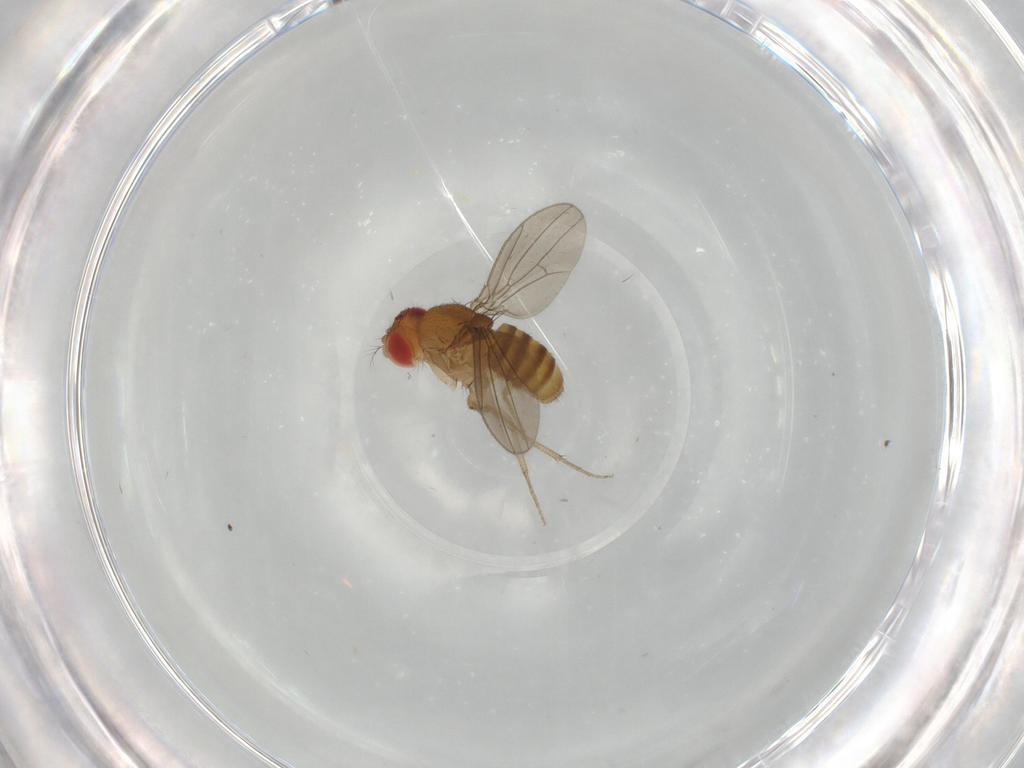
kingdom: Animalia
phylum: Arthropoda
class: Insecta
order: Diptera
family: Drosophilidae
